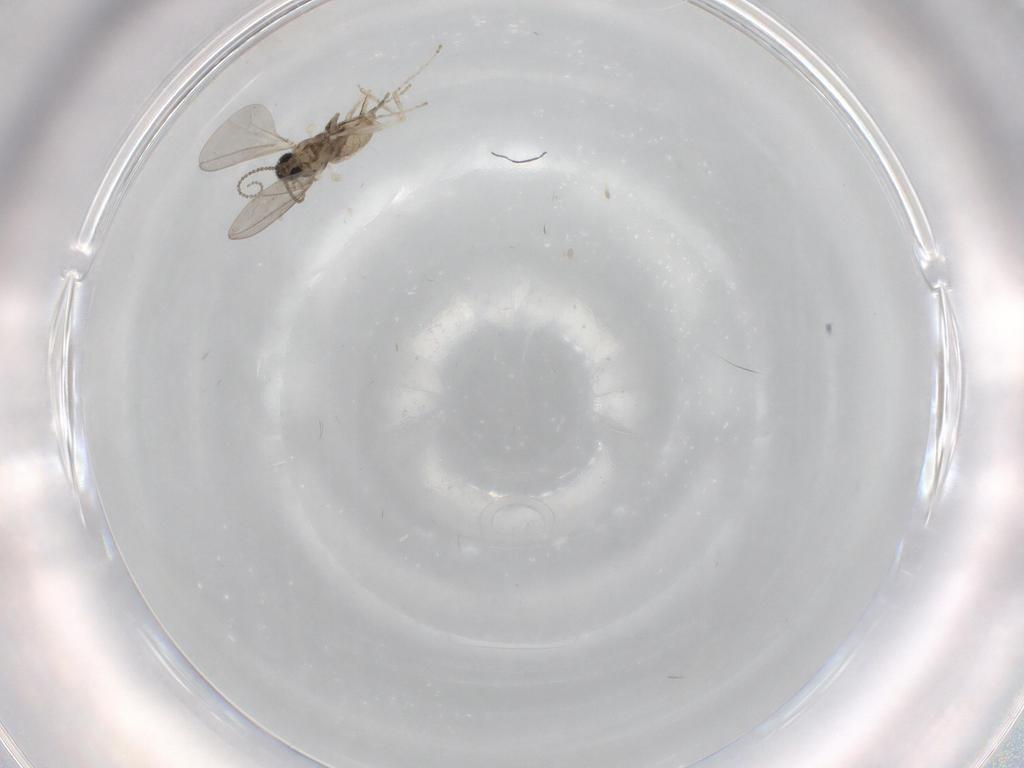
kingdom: Animalia
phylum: Arthropoda
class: Insecta
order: Diptera
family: Cecidomyiidae
